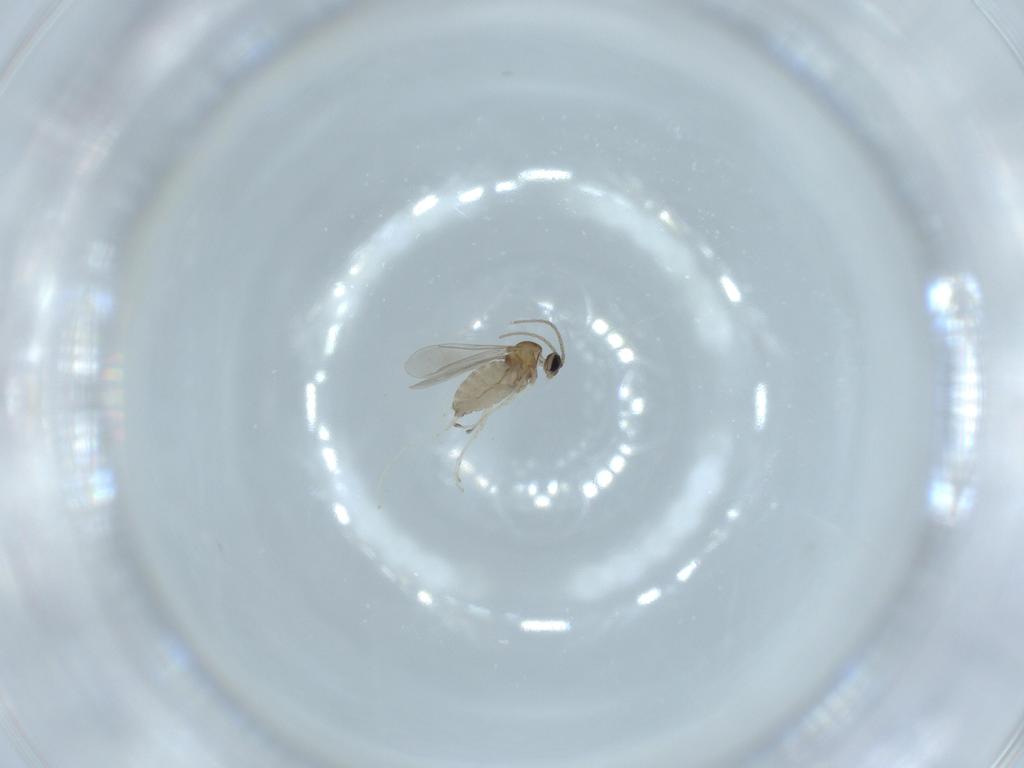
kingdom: Animalia
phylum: Arthropoda
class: Insecta
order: Diptera
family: Cecidomyiidae
